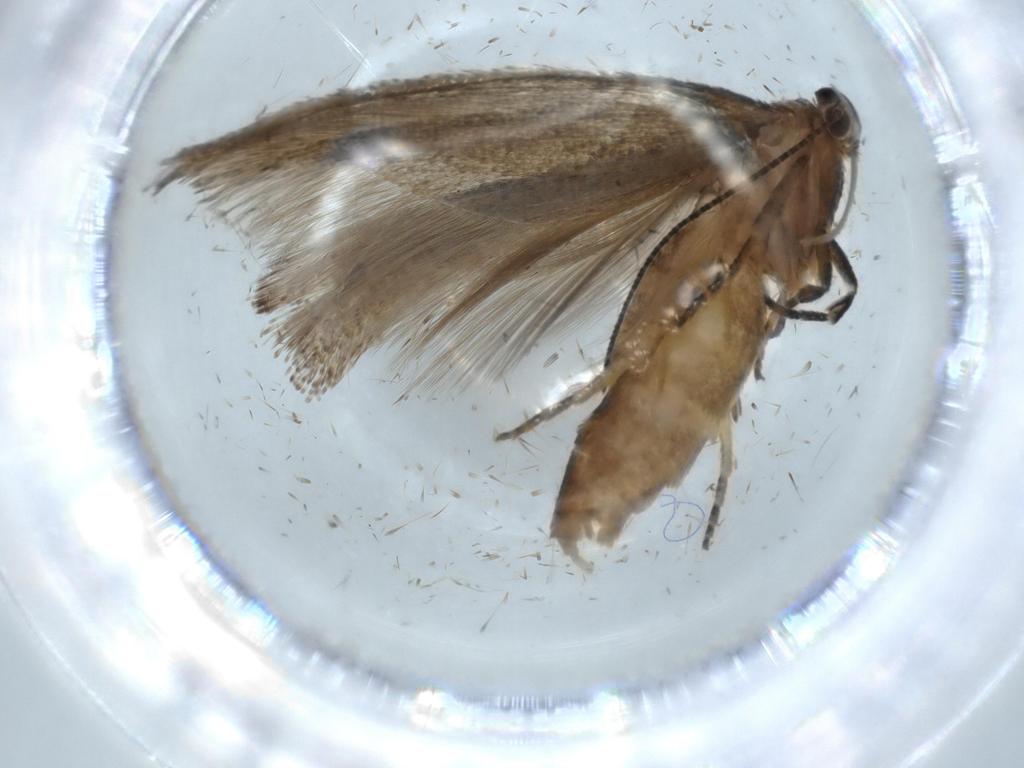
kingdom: Animalia
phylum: Arthropoda
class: Insecta
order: Lepidoptera
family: Oecophoridae
